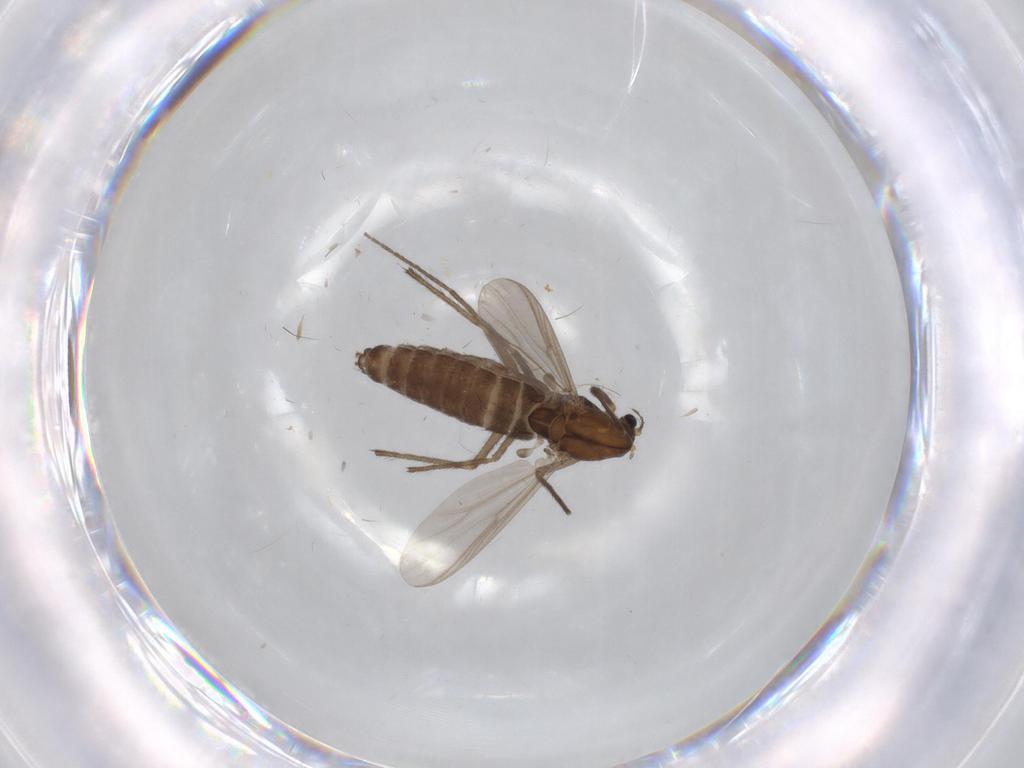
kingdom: Animalia
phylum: Arthropoda
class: Insecta
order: Diptera
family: Chironomidae
